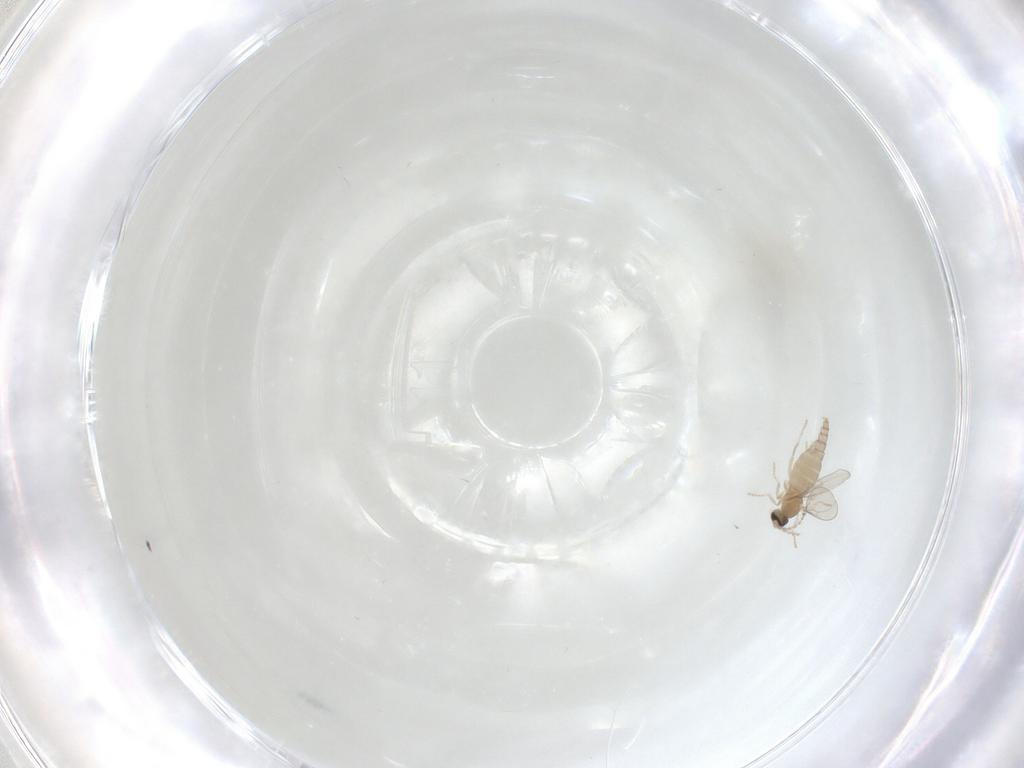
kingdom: Animalia
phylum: Arthropoda
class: Insecta
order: Diptera
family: Cecidomyiidae
